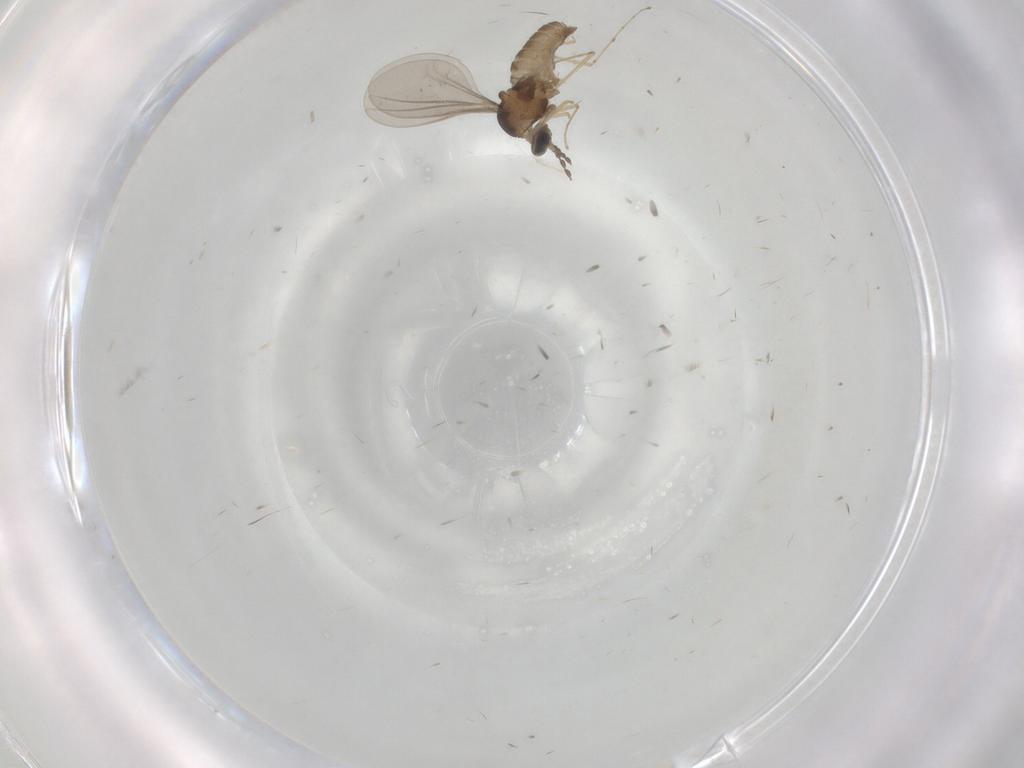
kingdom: Animalia
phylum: Arthropoda
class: Insecta
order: Diptera
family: Cecidomyiidae
